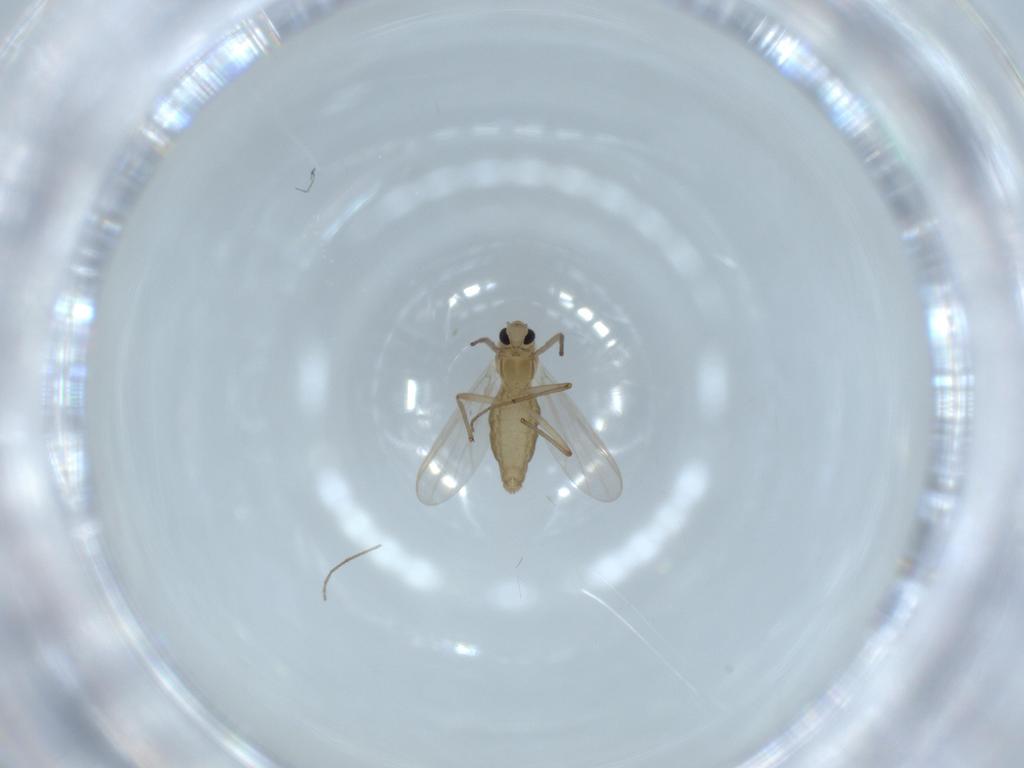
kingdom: Animalia
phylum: Arthropoda
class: Insecta
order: Diptera
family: Chironomidae
